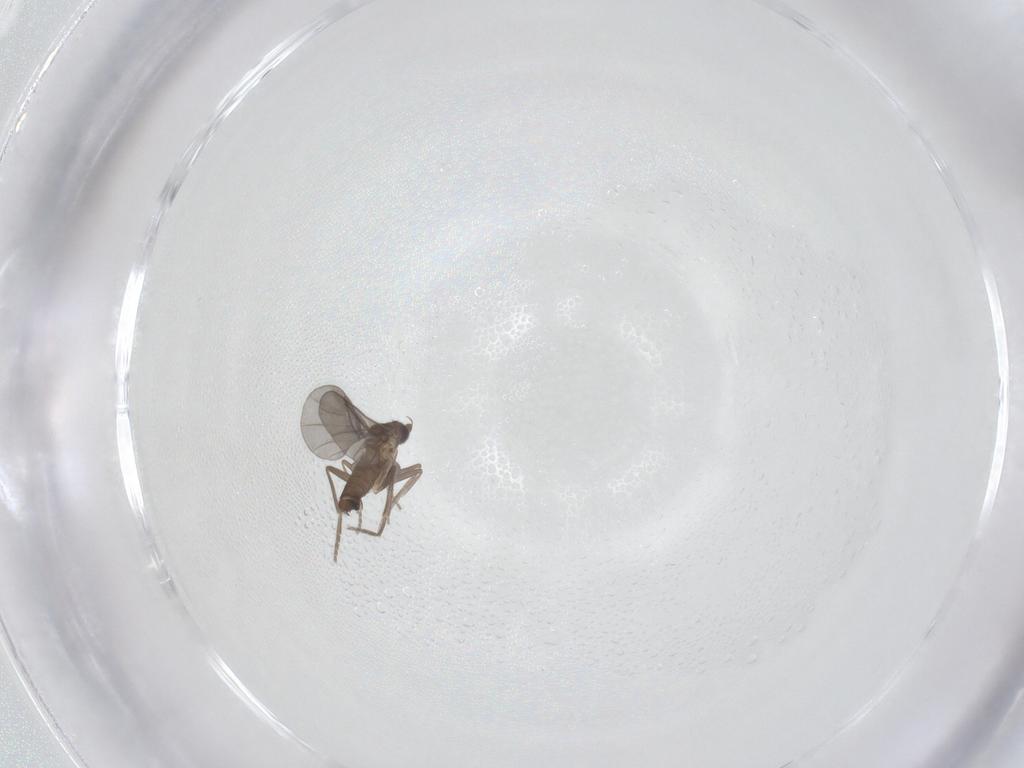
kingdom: Animalia
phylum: Arthropoda
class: Insecta
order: Diptera
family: Phoridae
